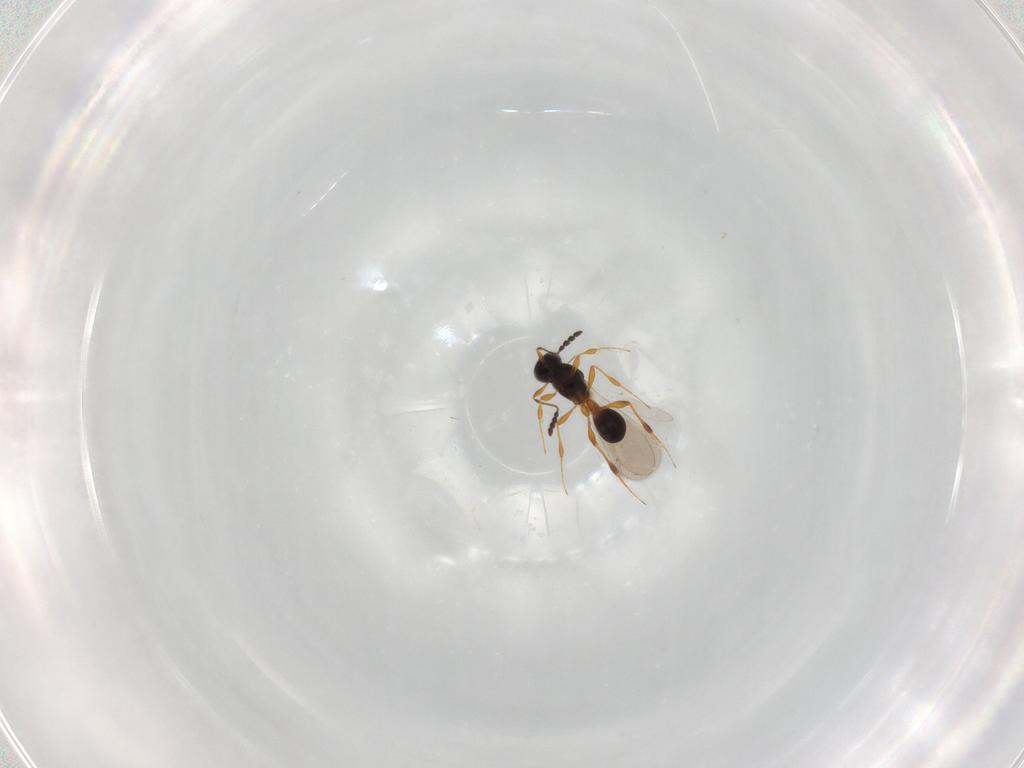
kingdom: Animalia
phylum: Arthropoda
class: Insecta
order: Hymenoptera
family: Platygastridae
